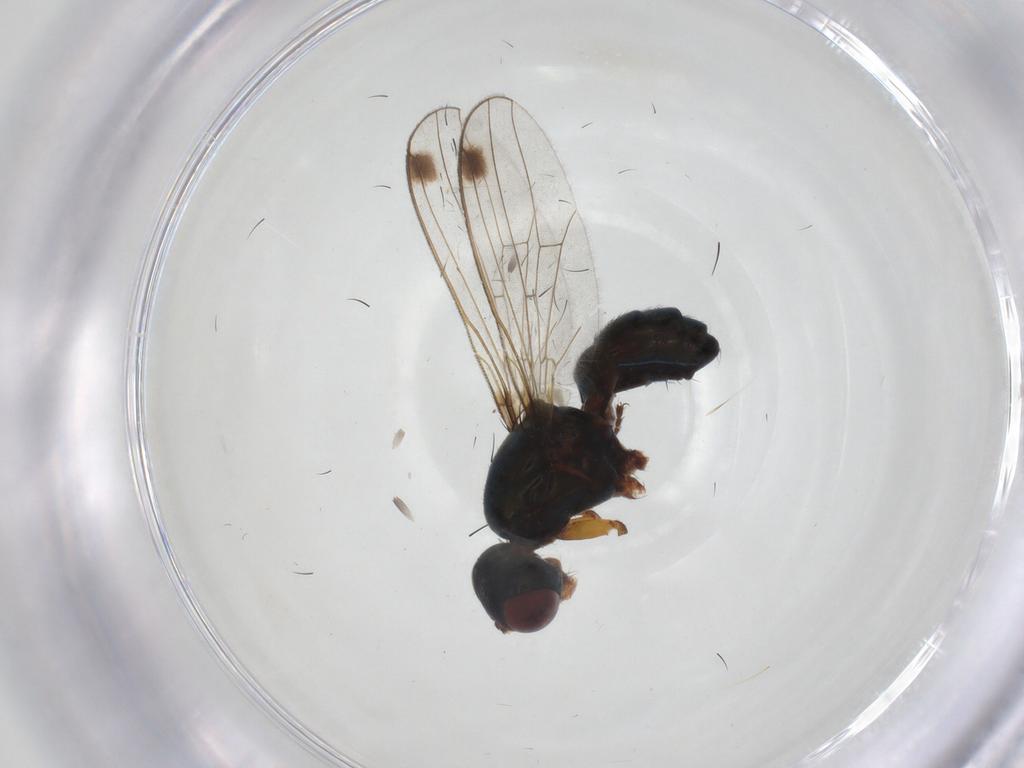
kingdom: Animalia
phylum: Arthropoda
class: Insecta
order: Diptera
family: Sepsidae
